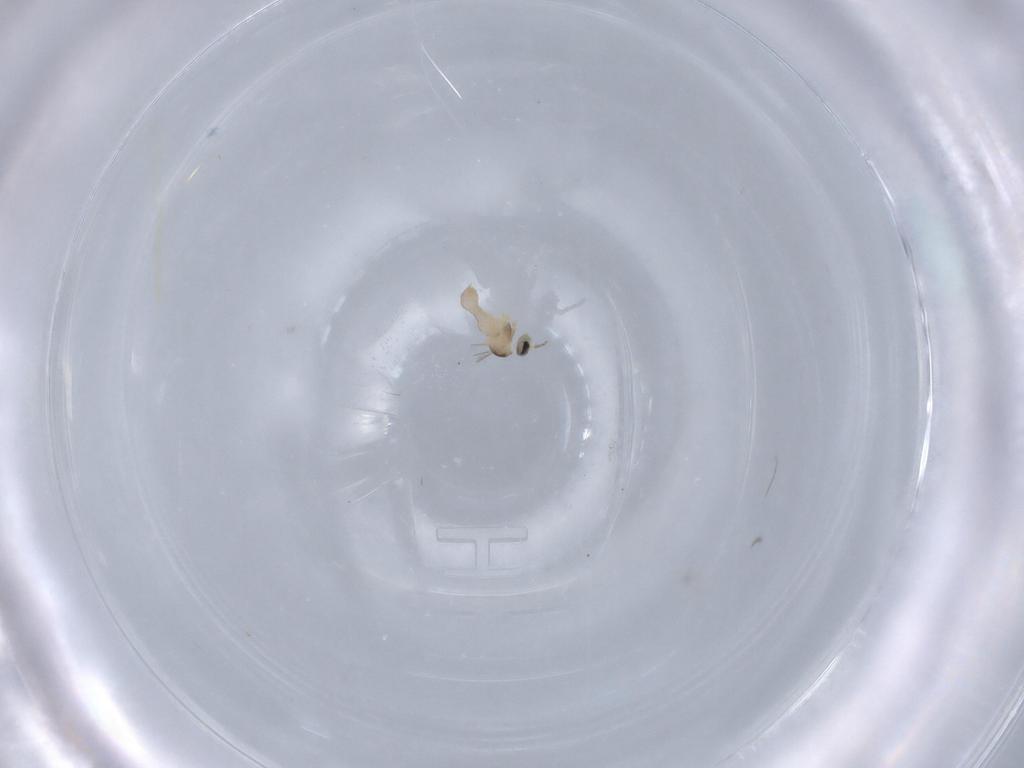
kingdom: Animalia
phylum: Arthropoda
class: Insecta
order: Diptera
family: Cecidomyiidae
